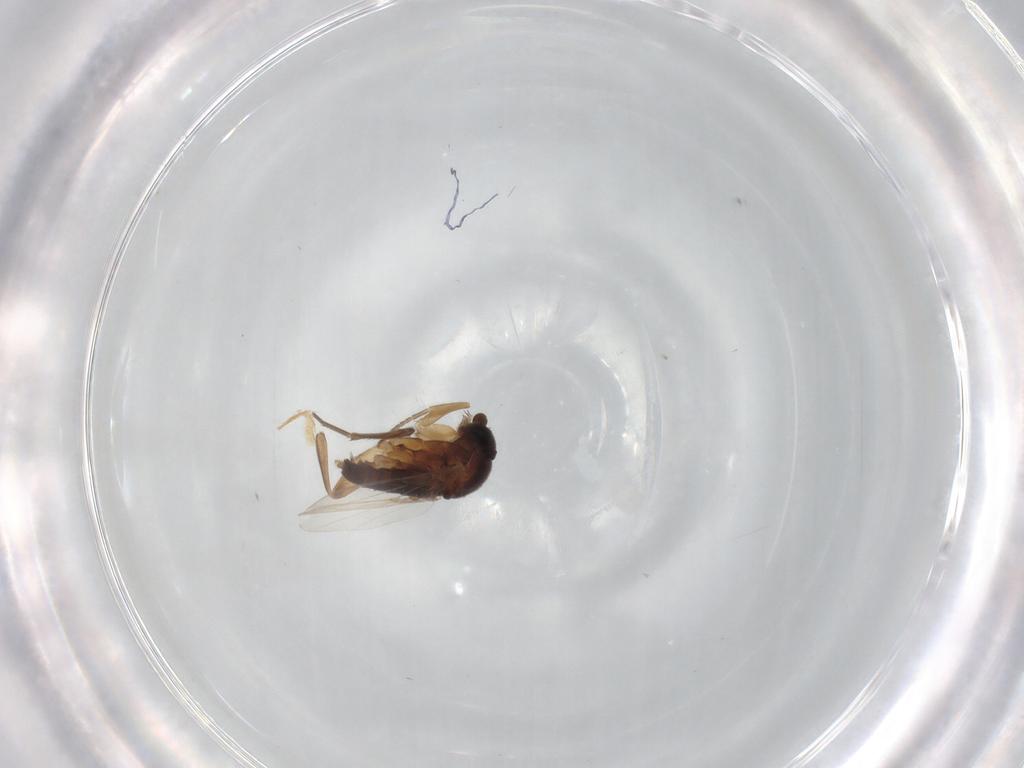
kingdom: Animalia
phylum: Arthropoda
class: Insecta
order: Diptera
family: Phoridae
